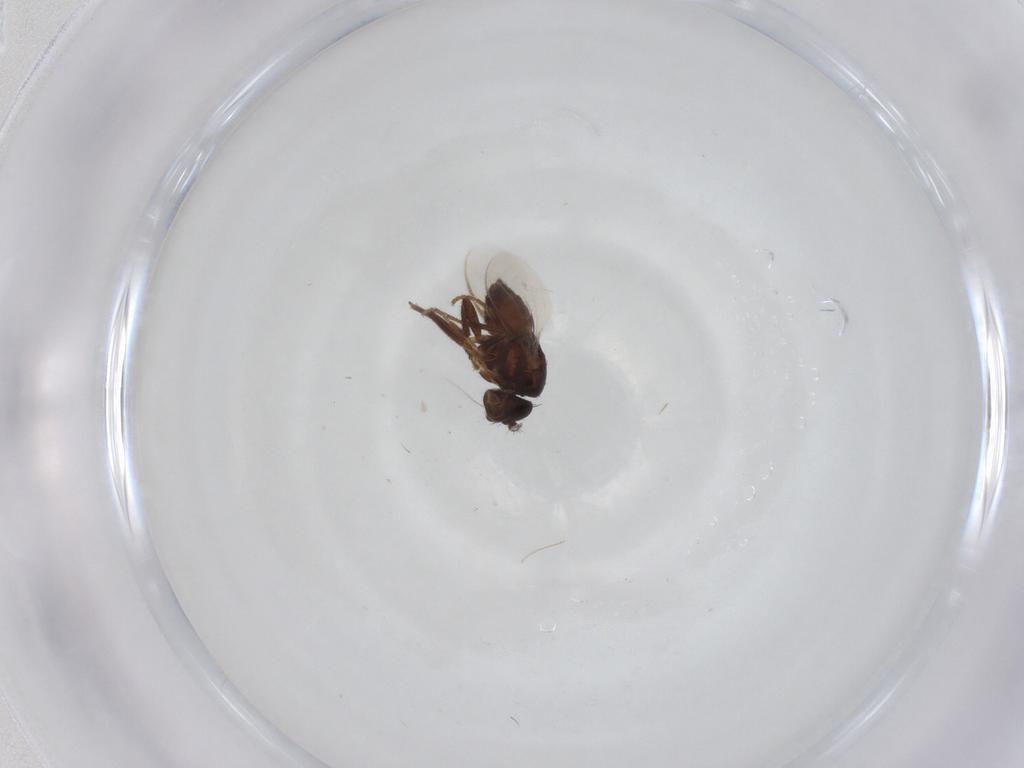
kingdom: Animalia
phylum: Arthropoda
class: Insecta
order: Diptera
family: Sphaeroceridae
